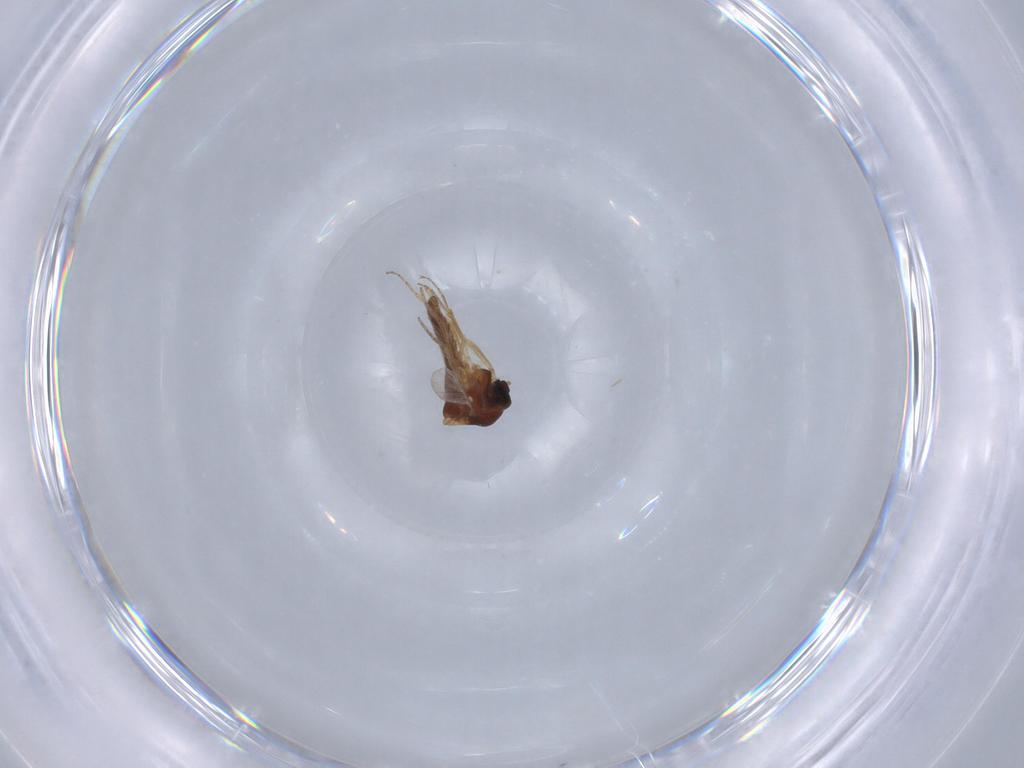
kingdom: Animalia
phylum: Arthropoda
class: Insecta
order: Diptera
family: Ceratopogonidae
